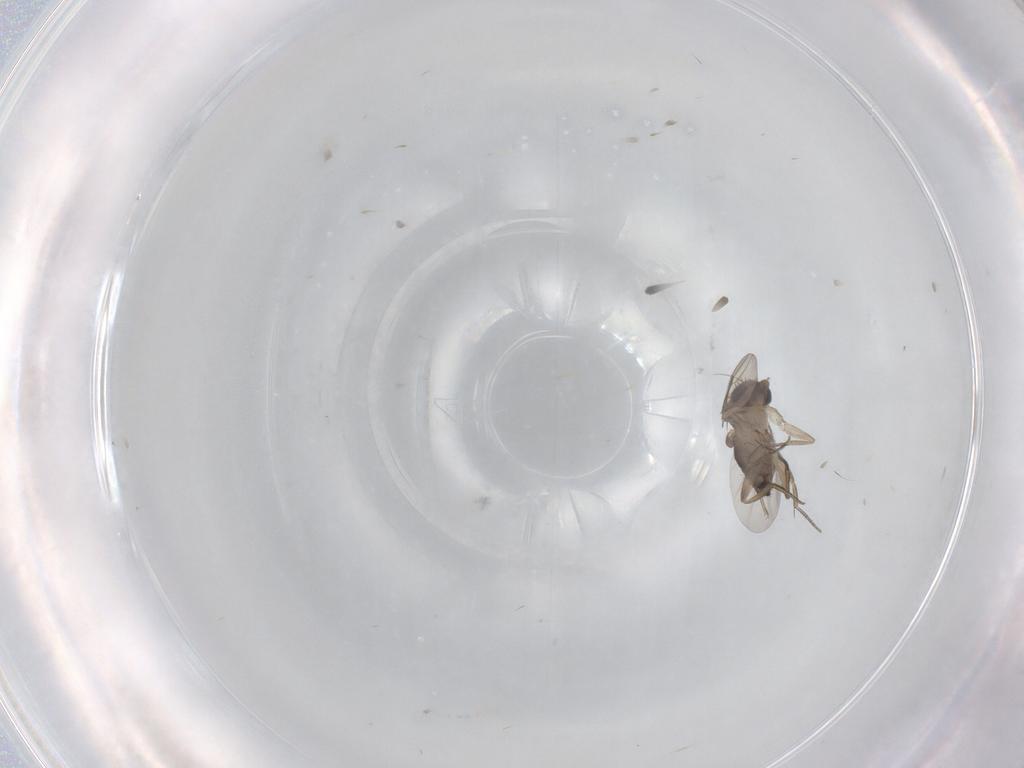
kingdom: Animalia
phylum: Arthropoda
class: Insecta
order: Diptera
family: Phoridae
